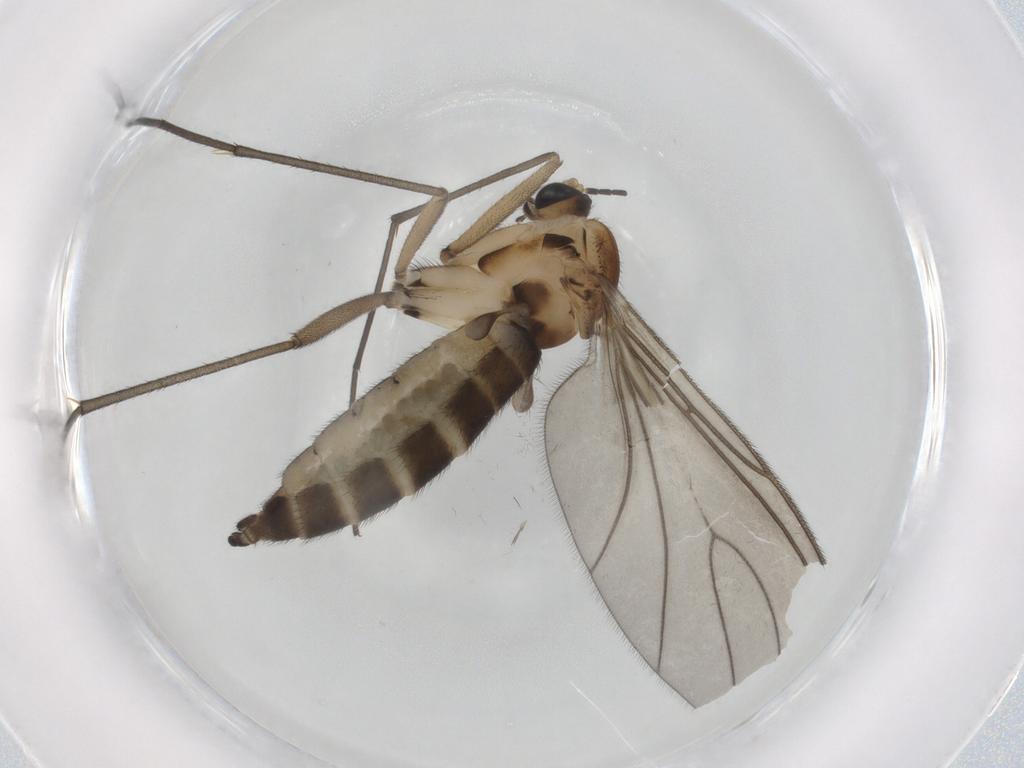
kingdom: Animalia
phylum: Arthropoda
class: Insecta
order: Diptera
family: Sciaridae
